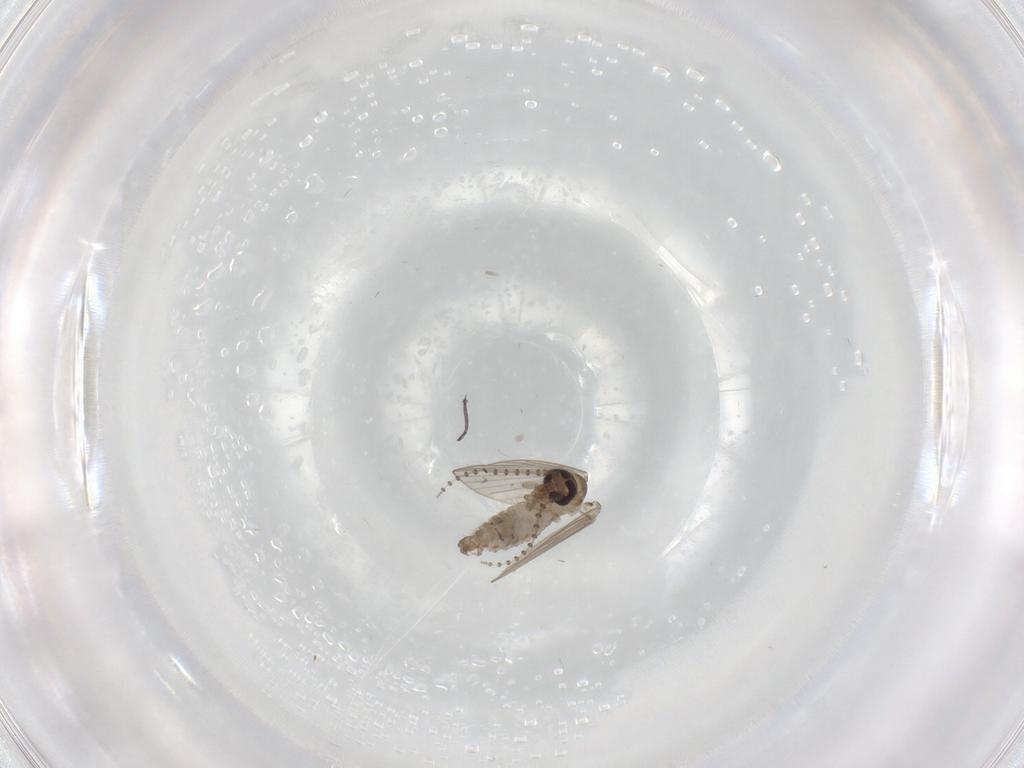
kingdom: Animalia
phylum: Arthropoda
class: Insecta
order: Diptera
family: Psychodidae
